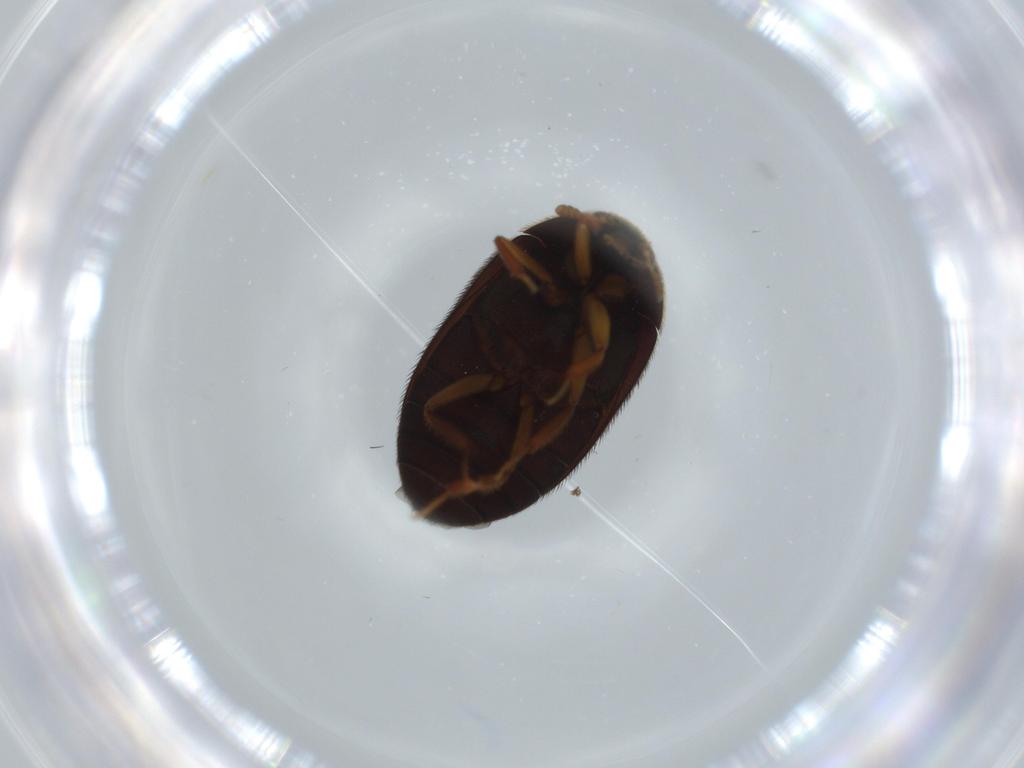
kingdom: Animalia
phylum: Arthropoda
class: Insecta
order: Coleoptera
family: Dermestidae
